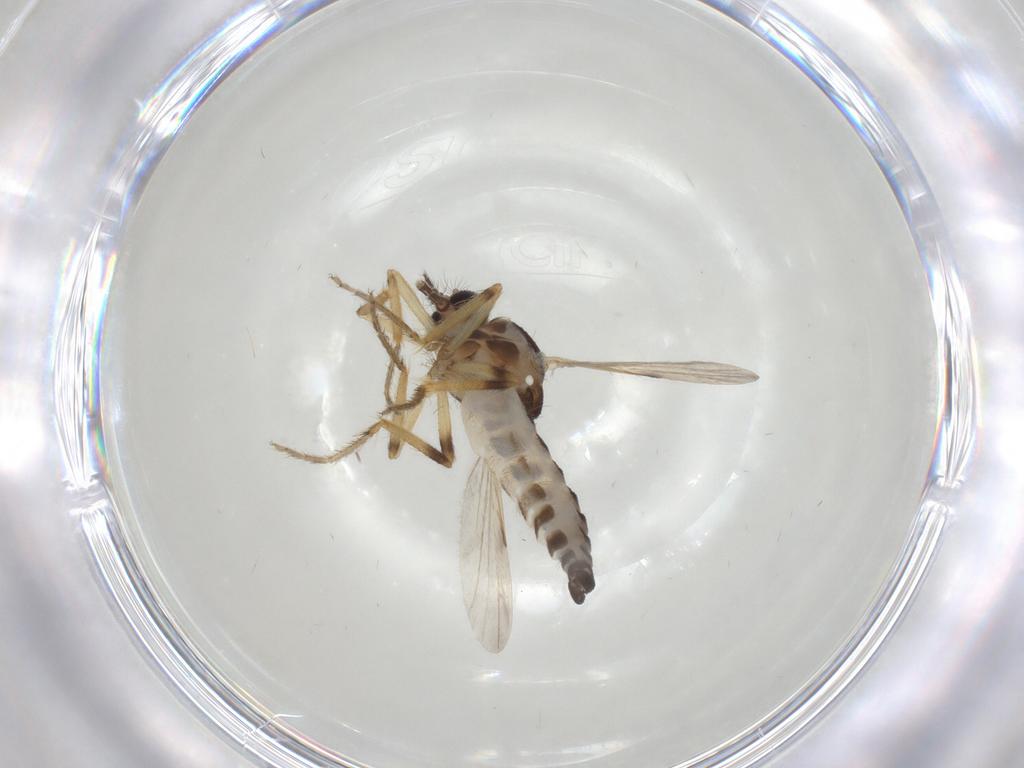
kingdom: Animalia
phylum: Arthropoda
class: Insecta
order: Diptera
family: Ceratopogonidae
